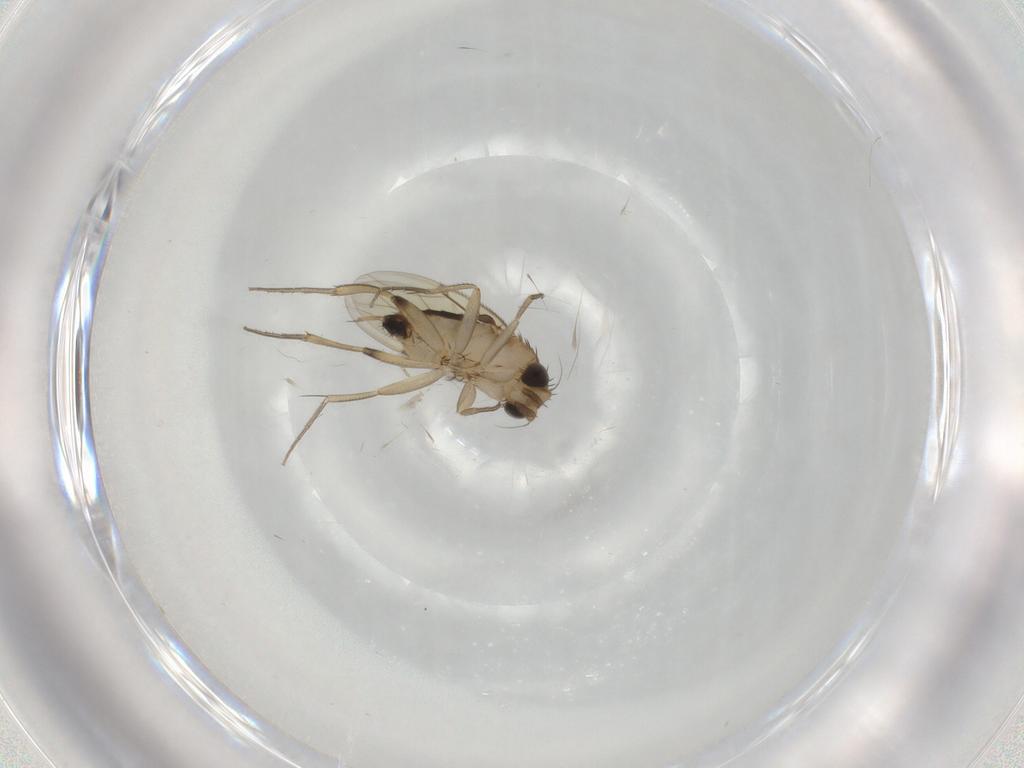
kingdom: Animalia
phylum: Arthropoda
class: Insecta
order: Diptera
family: Phoridae
